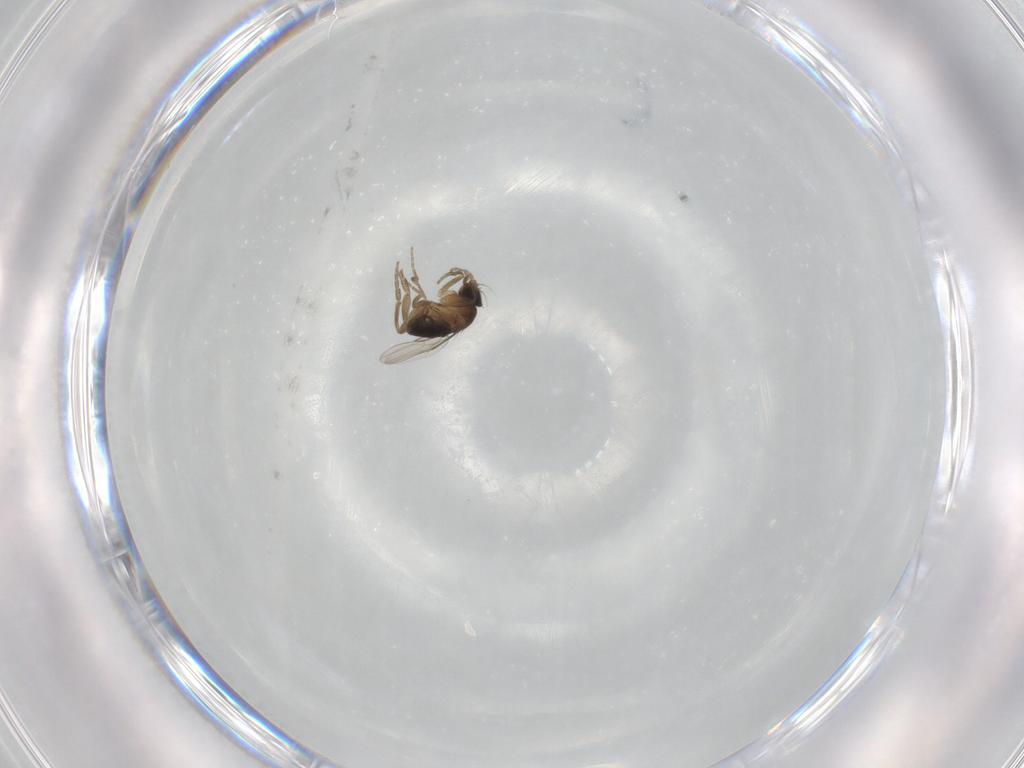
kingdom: Animalia
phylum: Arthropoda
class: Insecta
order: Diptera
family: Phoridae
